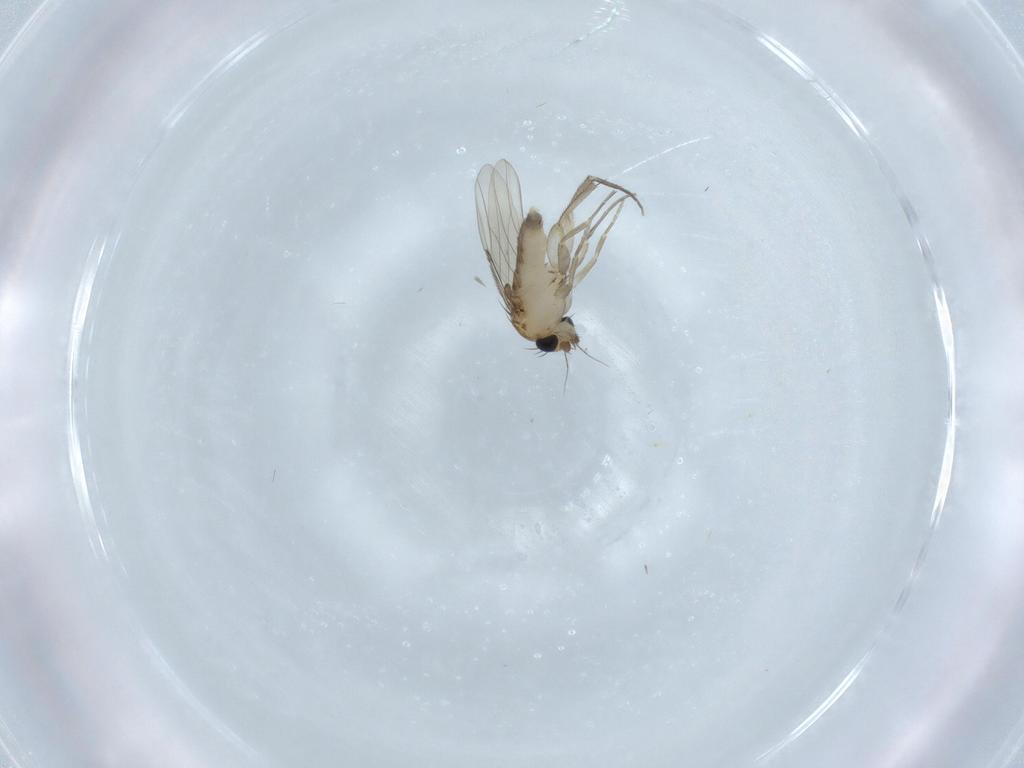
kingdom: Animalia
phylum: Arthropoda
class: Insecta
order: Diptera
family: Phoridae
